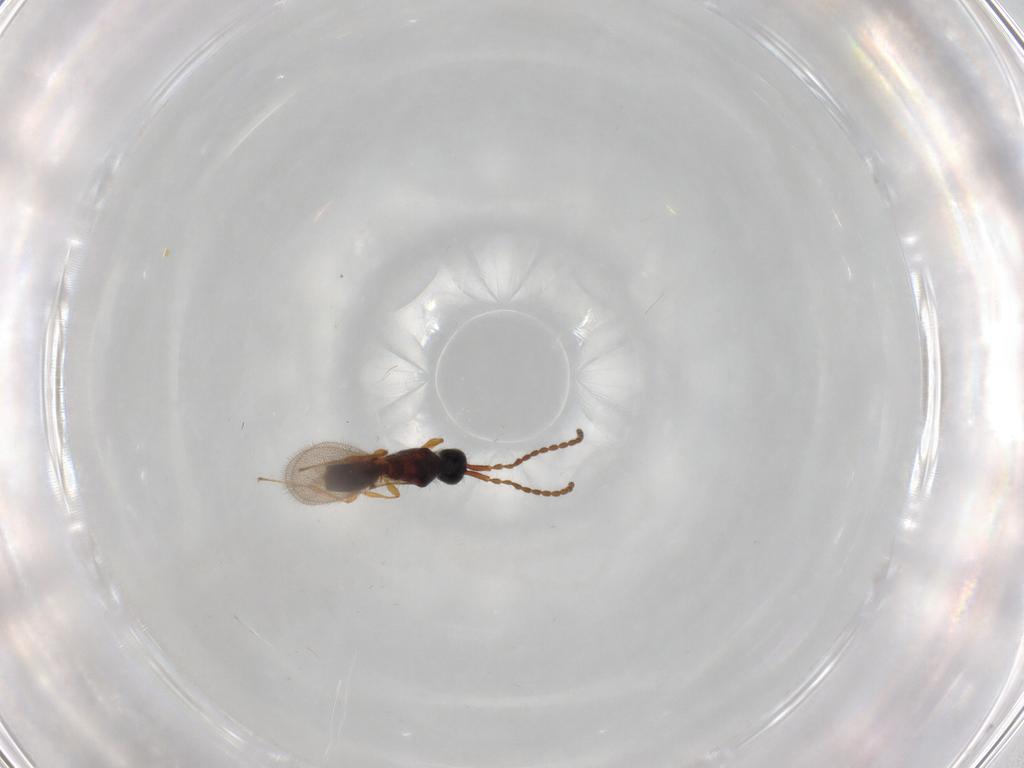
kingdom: Animalia
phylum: Arthropoda
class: Insecta
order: Hymenoptera
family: Diapriidae
